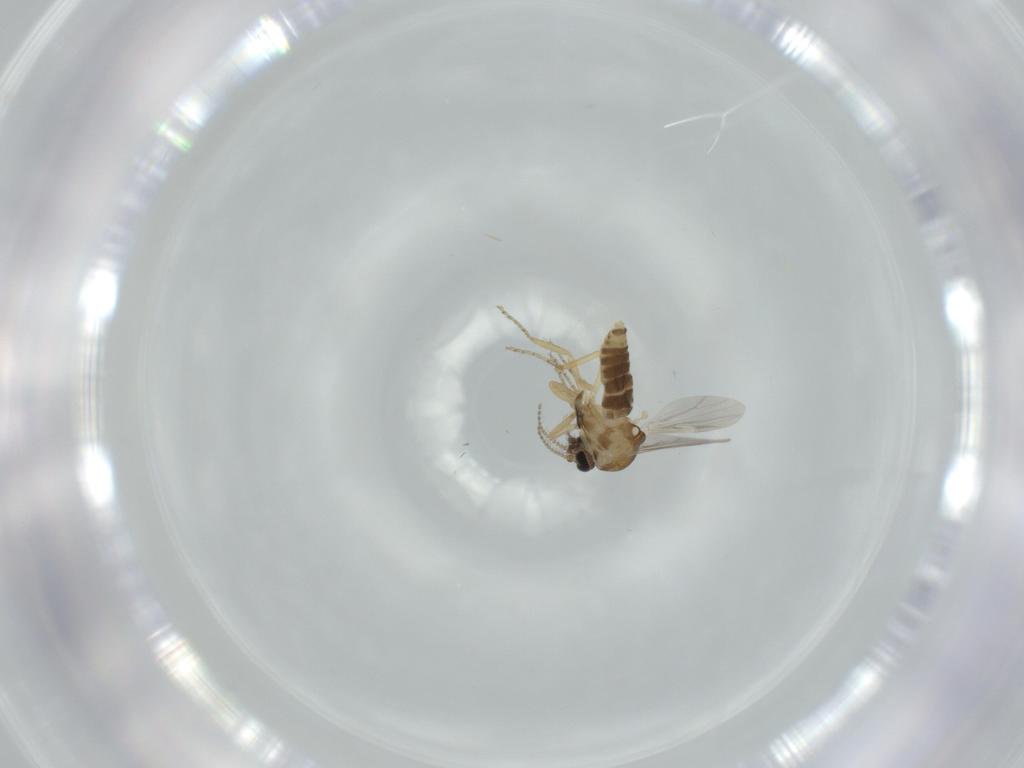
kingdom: Animalia
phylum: Arthropoda
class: Insecta
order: Diptera
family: Ceratopogonidae
